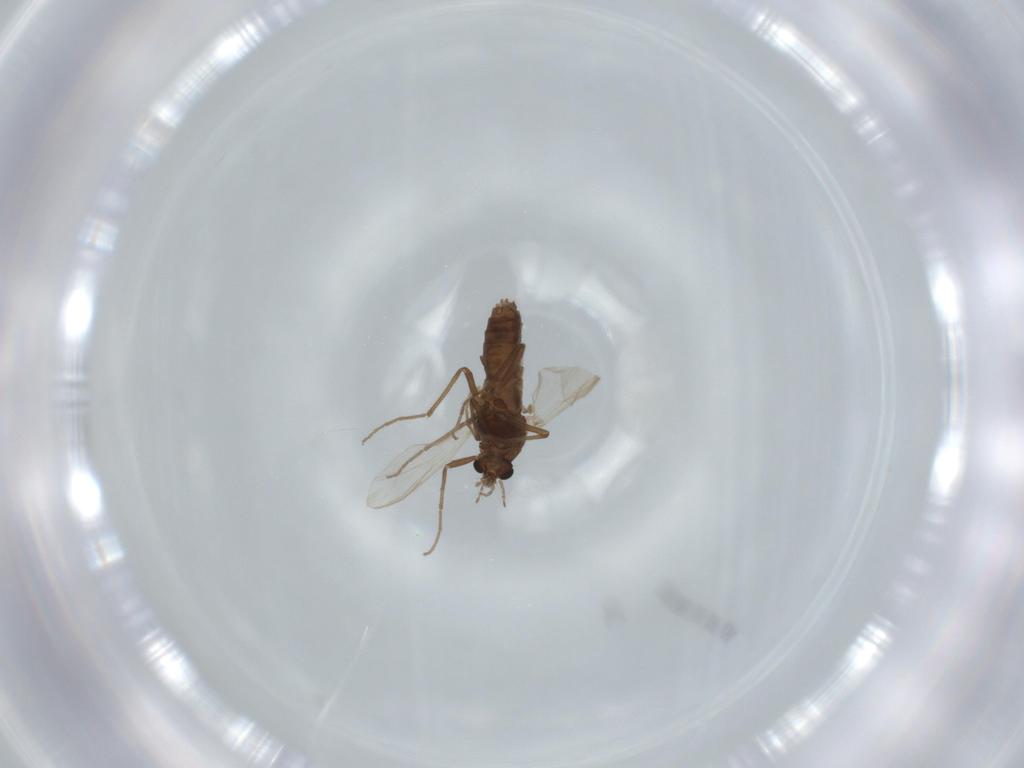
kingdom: Animalia
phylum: Arthropoda
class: Insecta
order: Diptera
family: Chironomidae
